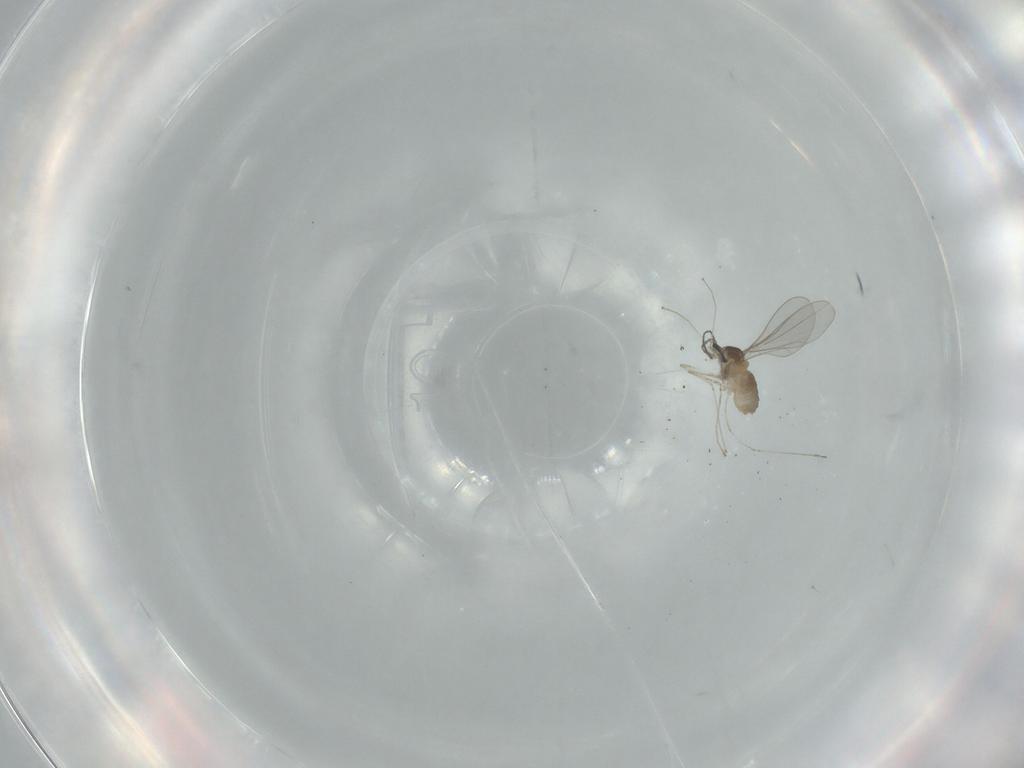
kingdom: Animalia
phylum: Arthropoda
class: Insecta
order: Diptera
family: Cecidomyiidae
